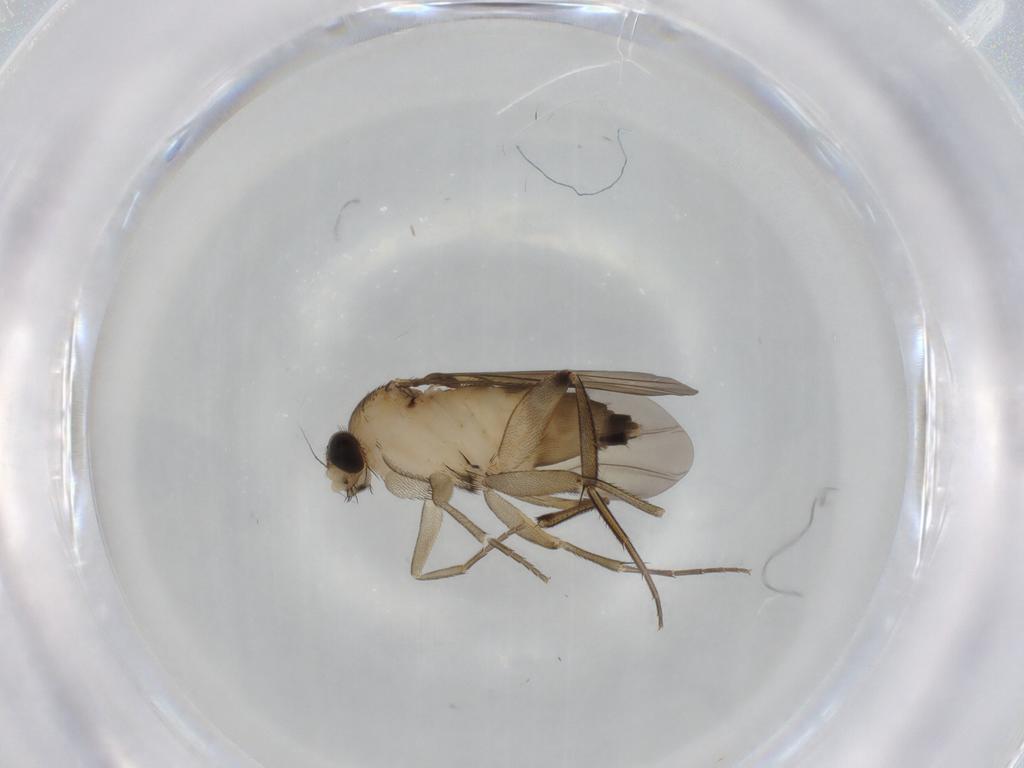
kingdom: Animalia
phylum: Arthropoda
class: Insecta
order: Diptera
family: Phoridae
